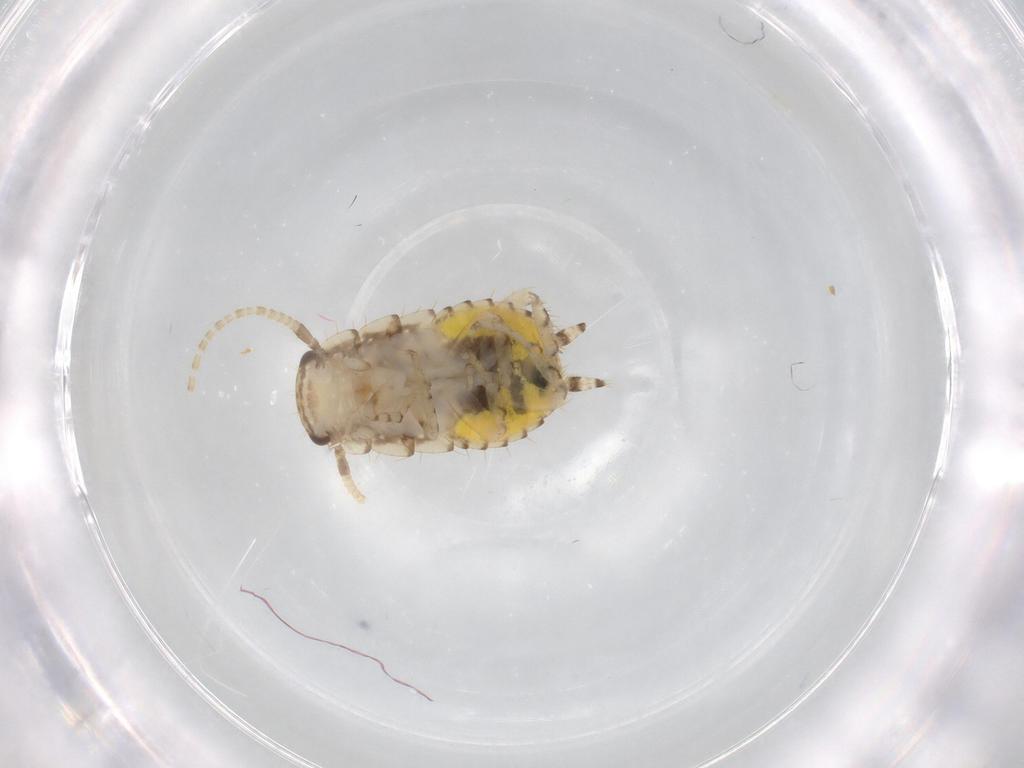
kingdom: Animalia
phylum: Arthropoda
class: Insecta
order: Blattodea
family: Ectobiidae
